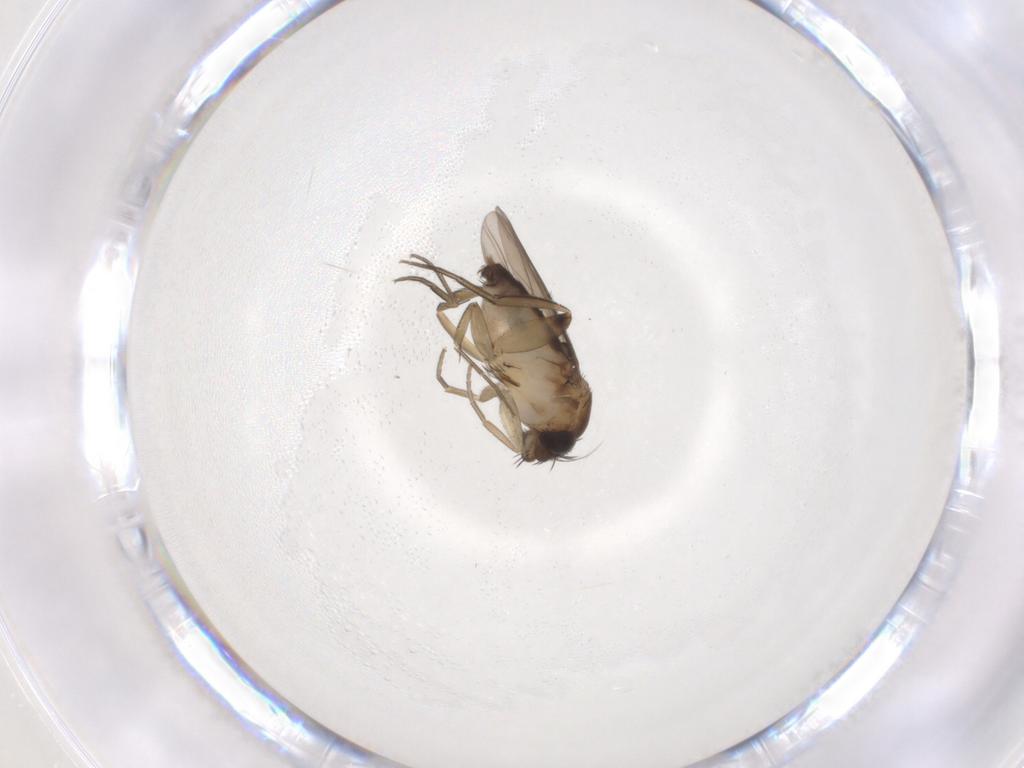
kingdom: Animalia
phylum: Arthropoda
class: Insecta
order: Diptera
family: Phoridae
